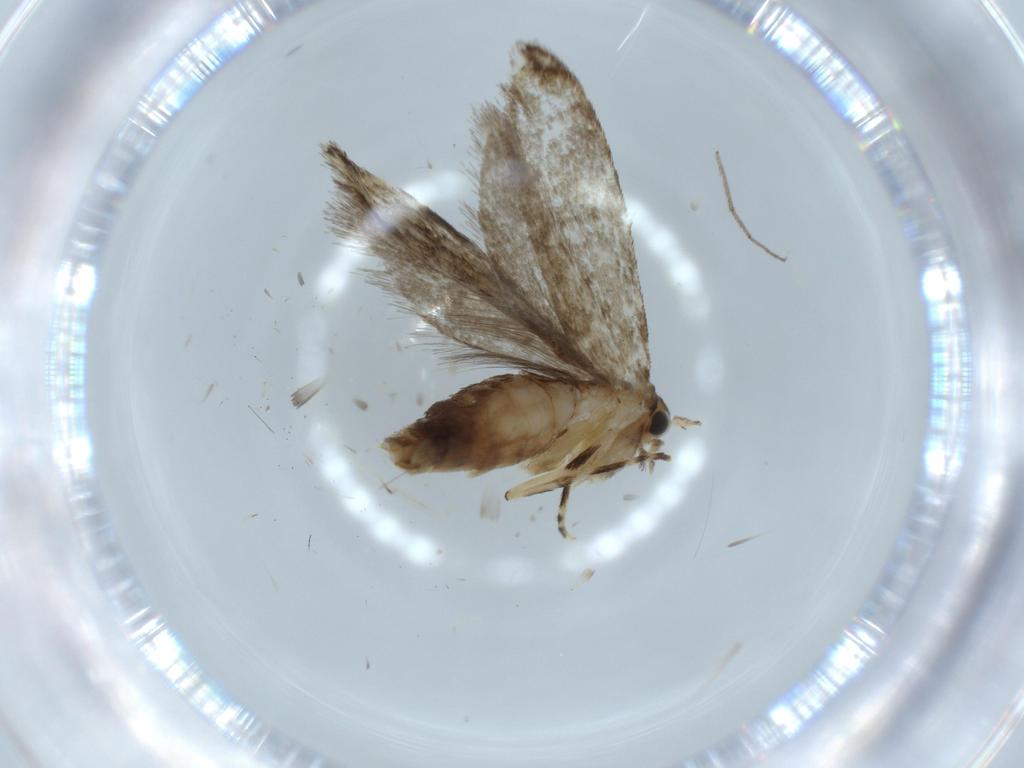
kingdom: Animalia
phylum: Arthropoda
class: Insecta
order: Lepidoptera
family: Tineidae
